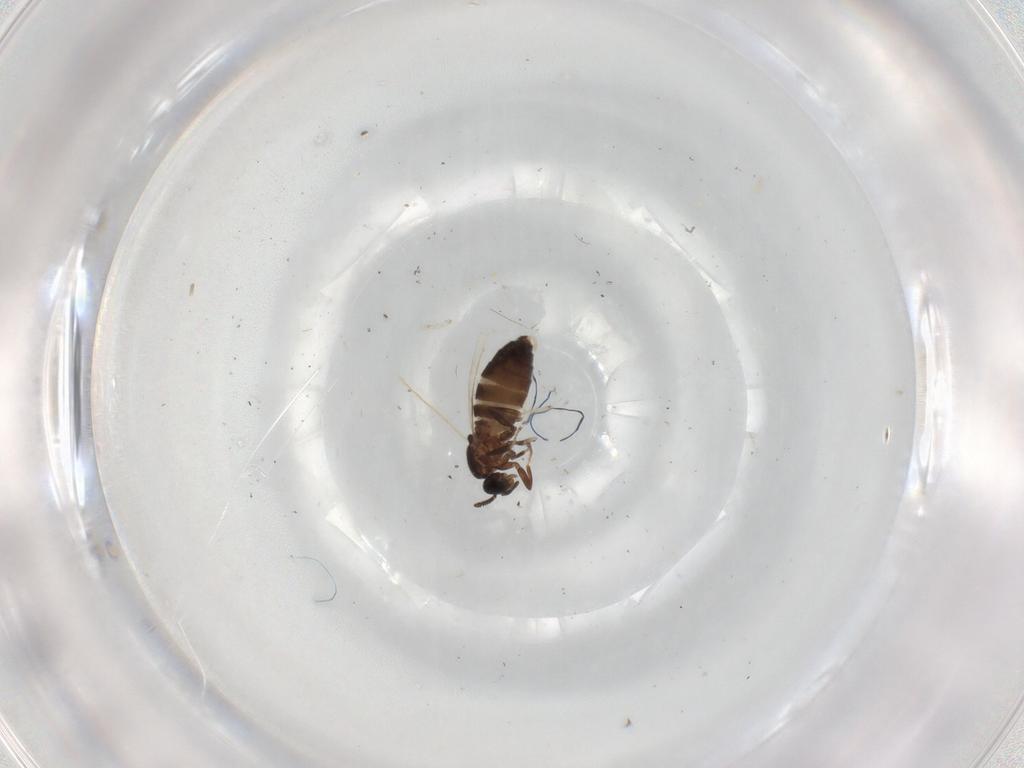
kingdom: Animalia
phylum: Arthropoda
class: Insecta
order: Diptera
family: Scatopsidae
